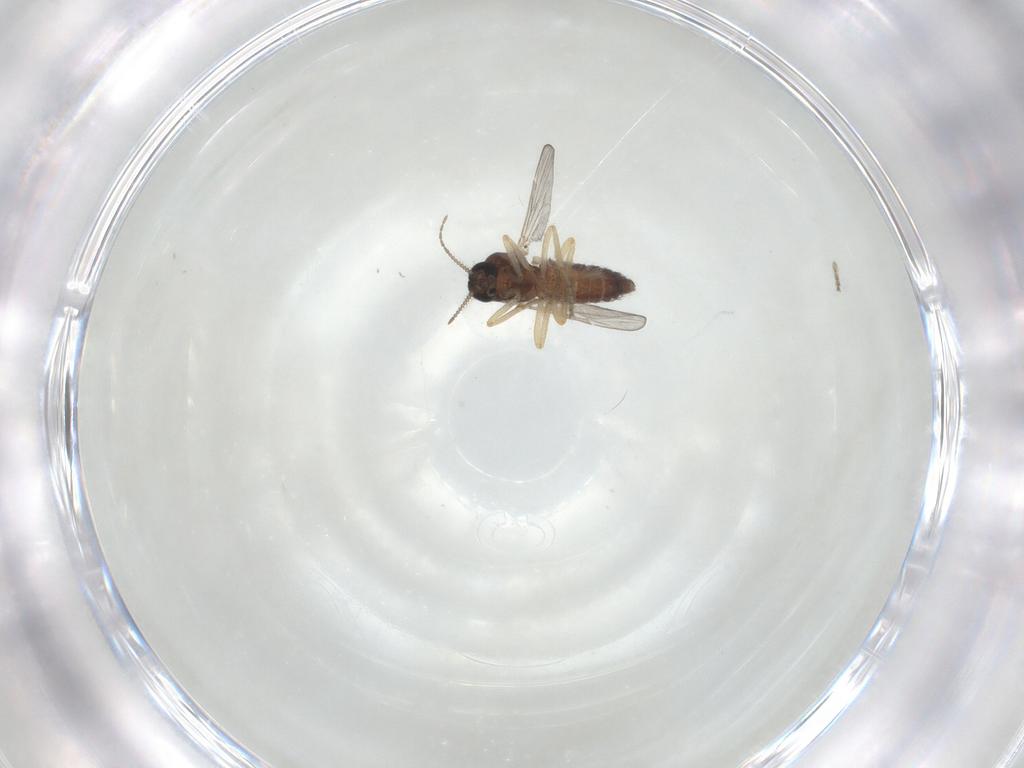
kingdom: Animalia
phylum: Arthropoda
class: Insecta
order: Diptera
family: Ceratopogonidae
